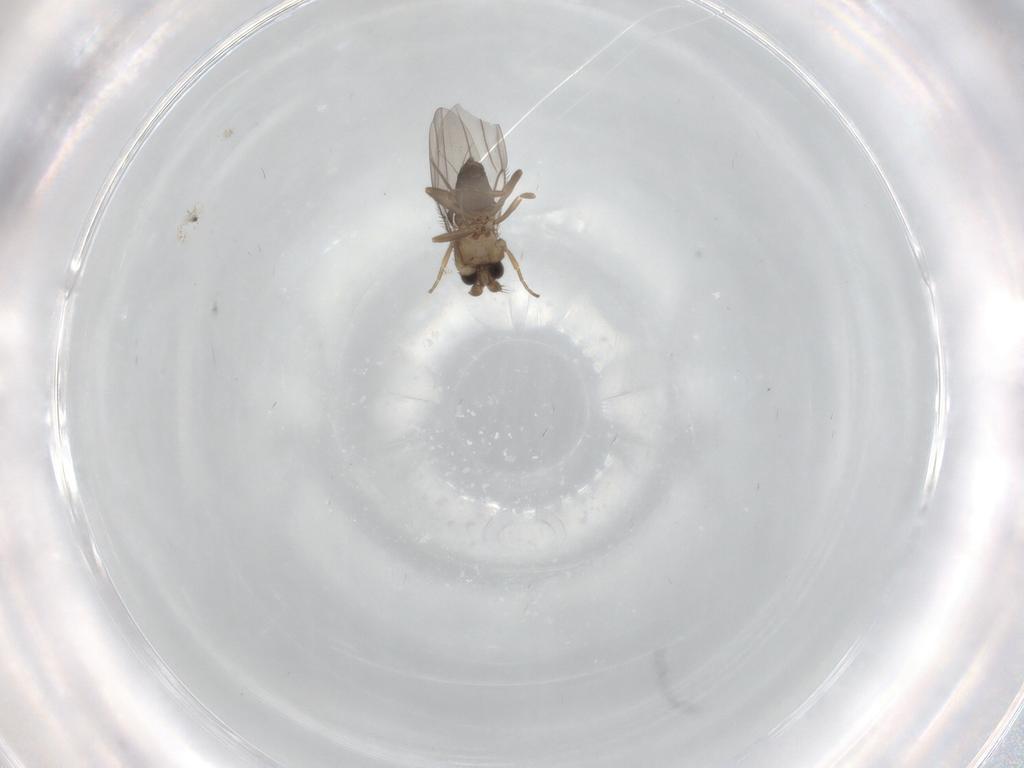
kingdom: Animalia
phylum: Arthropoda
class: Insecta
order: Diptera
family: Phoridae
